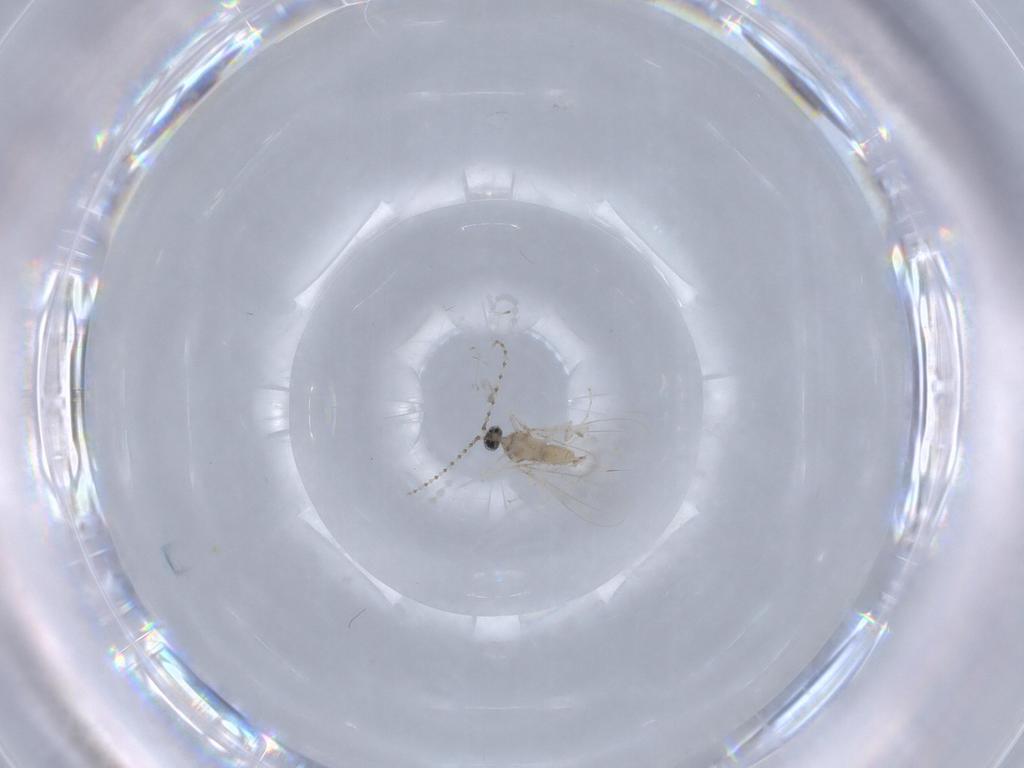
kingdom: Animalia
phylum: Arthropoda
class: Insecta
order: Diptera
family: Cecidomyiidae
